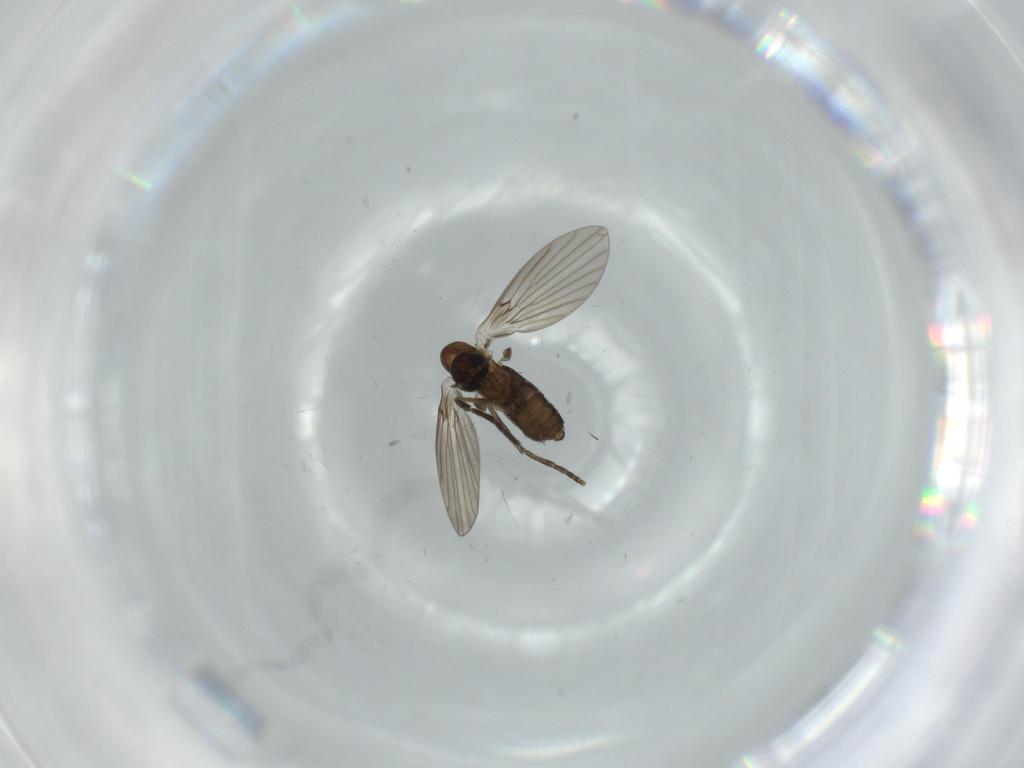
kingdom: Animalia
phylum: Arthropoda
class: Insecta
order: Diptera
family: Psychodidae
